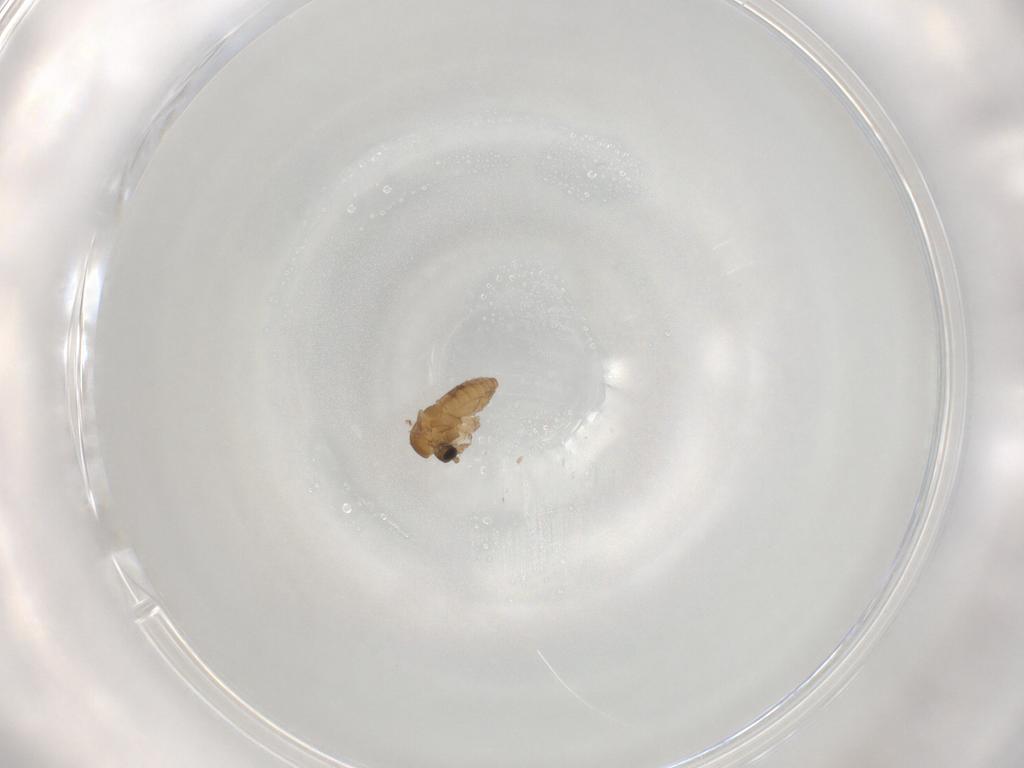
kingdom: Animalia
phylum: Arthropoda
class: Insecta
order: Diptera
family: Psychodidae
